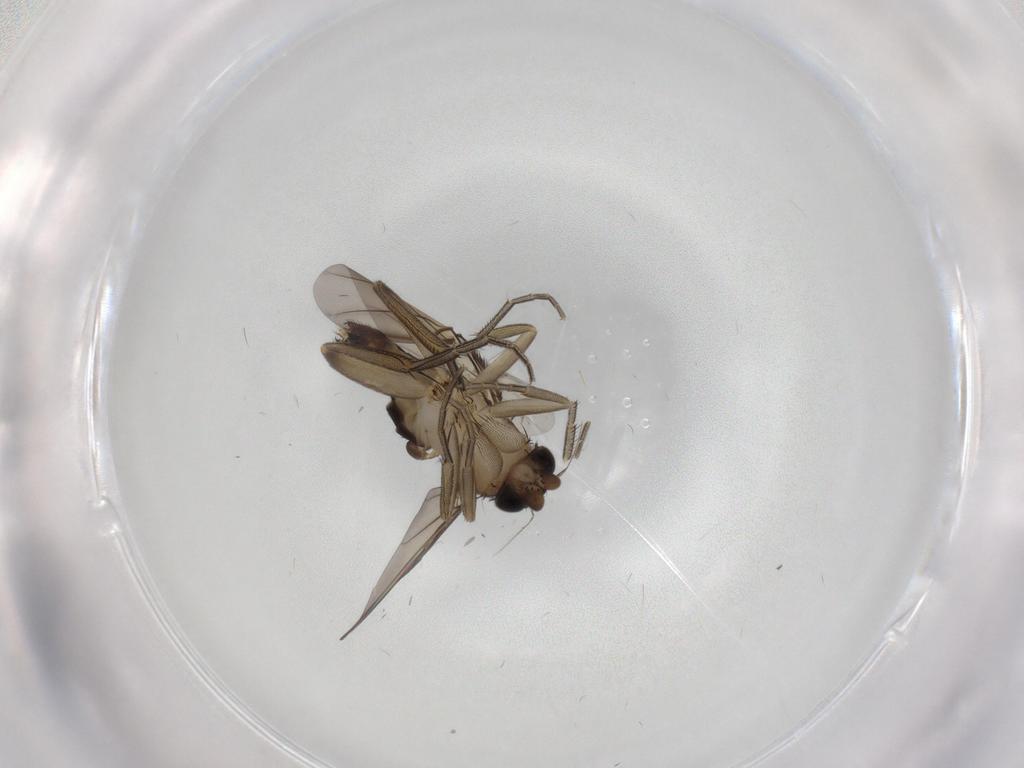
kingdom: Animalia
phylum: Arthropoda
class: Insecta
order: Diptera
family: Phoridae
